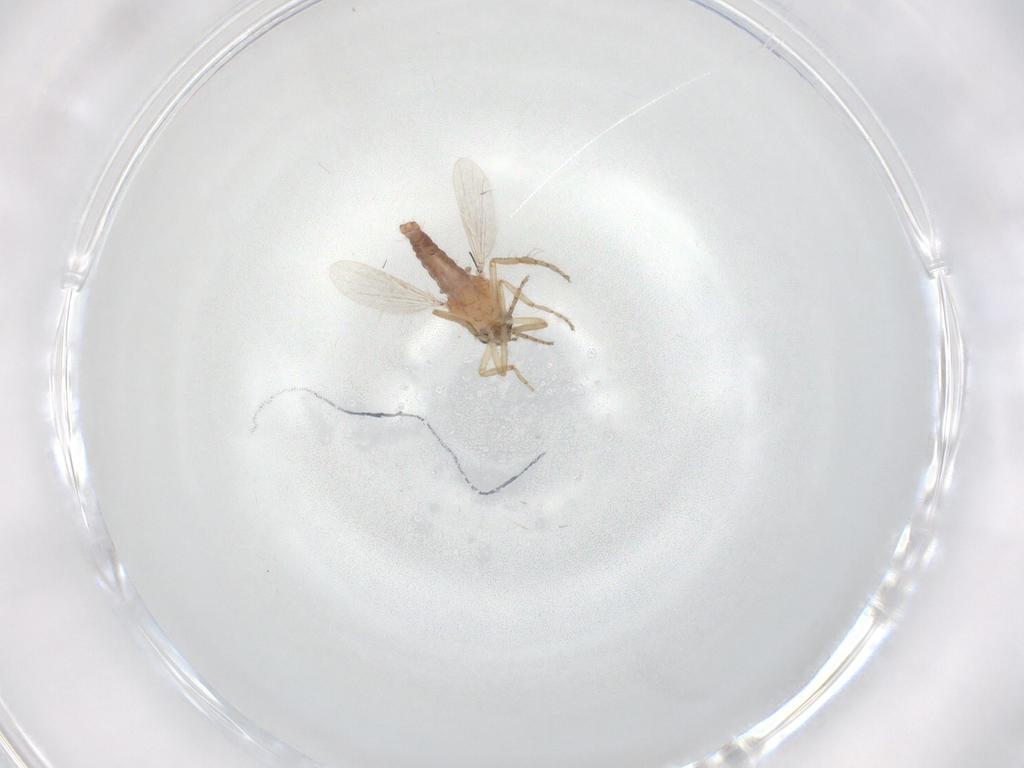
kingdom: Animalia
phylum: Arthropoda
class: Insecta
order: Diptera
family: Ceratopogonidae
